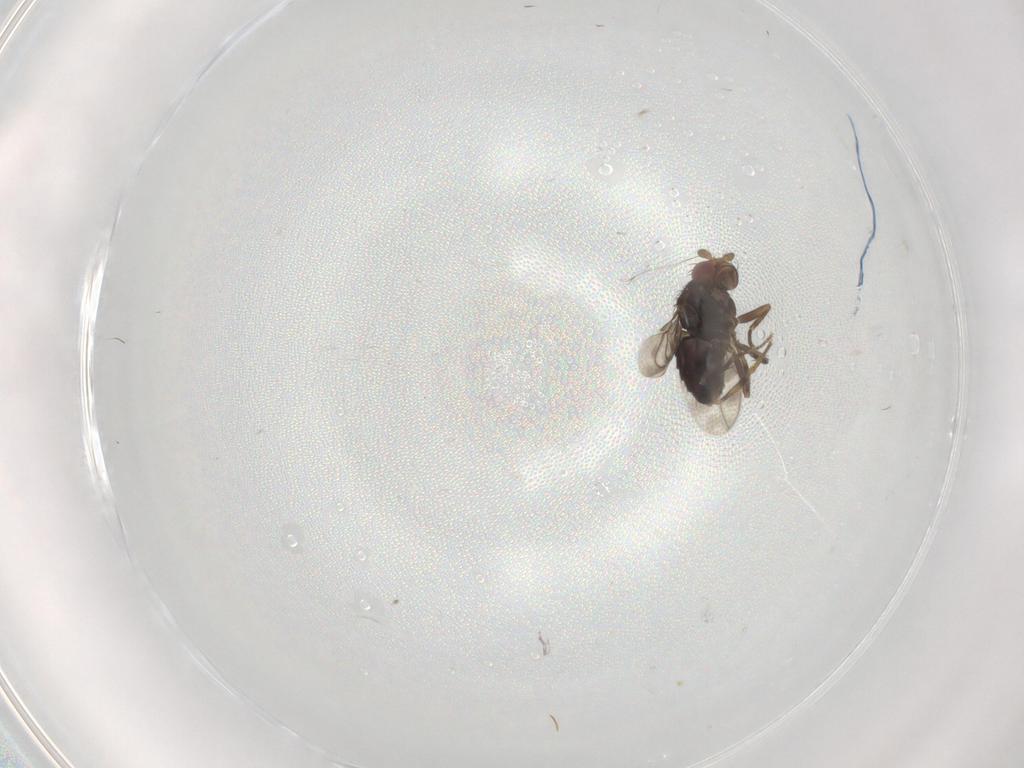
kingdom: Animalia
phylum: Arthropoda
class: Insecta
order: Diptera
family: Sphaeroceridae
